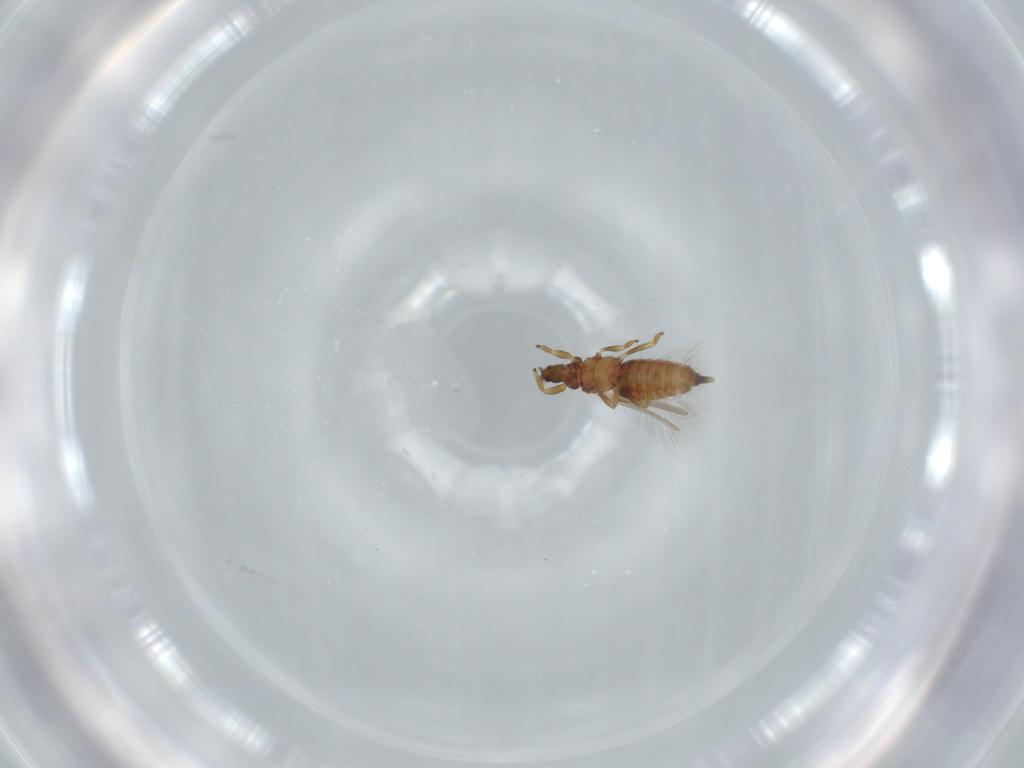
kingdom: Animalia
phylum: Arthropoda
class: Insecta
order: Thysanoptera
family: Phlaeothripidae
